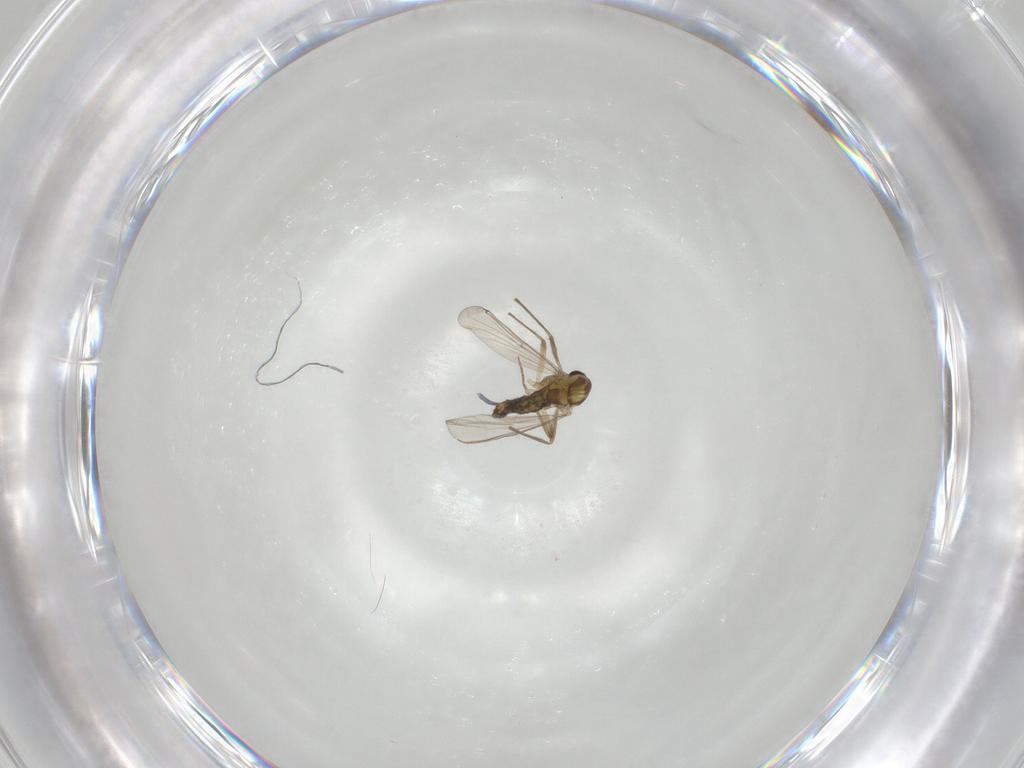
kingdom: Animalia
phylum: Arthropoda
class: Insecta
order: Diptera
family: Chironomidae
